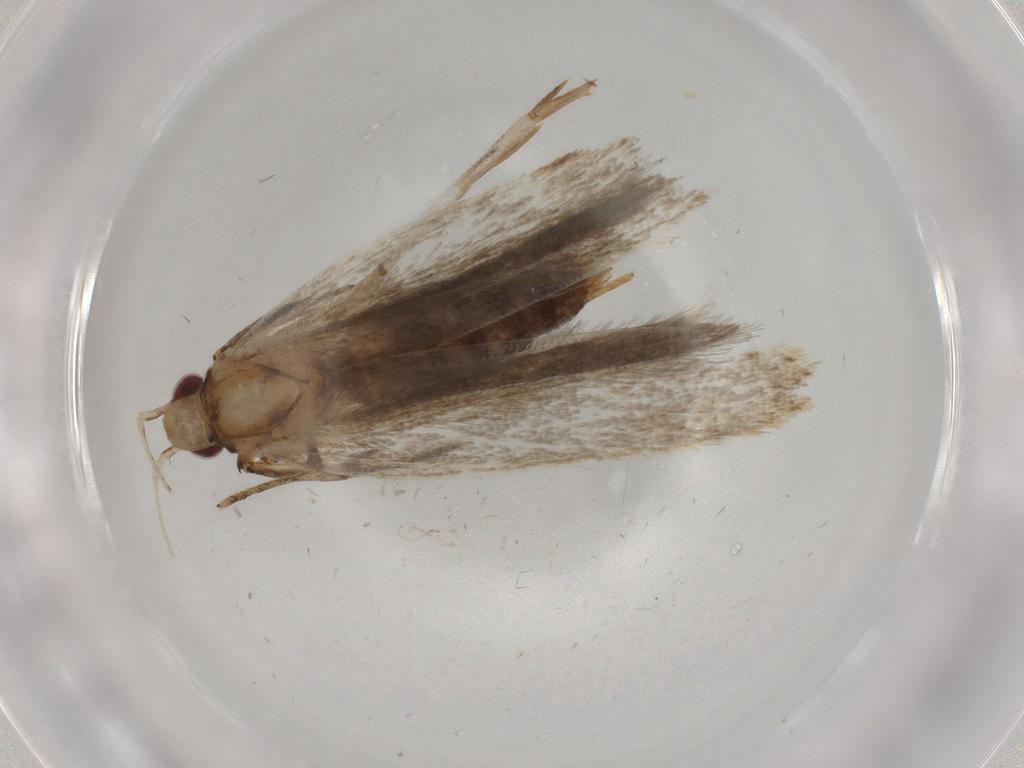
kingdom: Animalia
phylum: Arthropoda
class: Insecta
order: Lepidoptera
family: Gelechiidae
